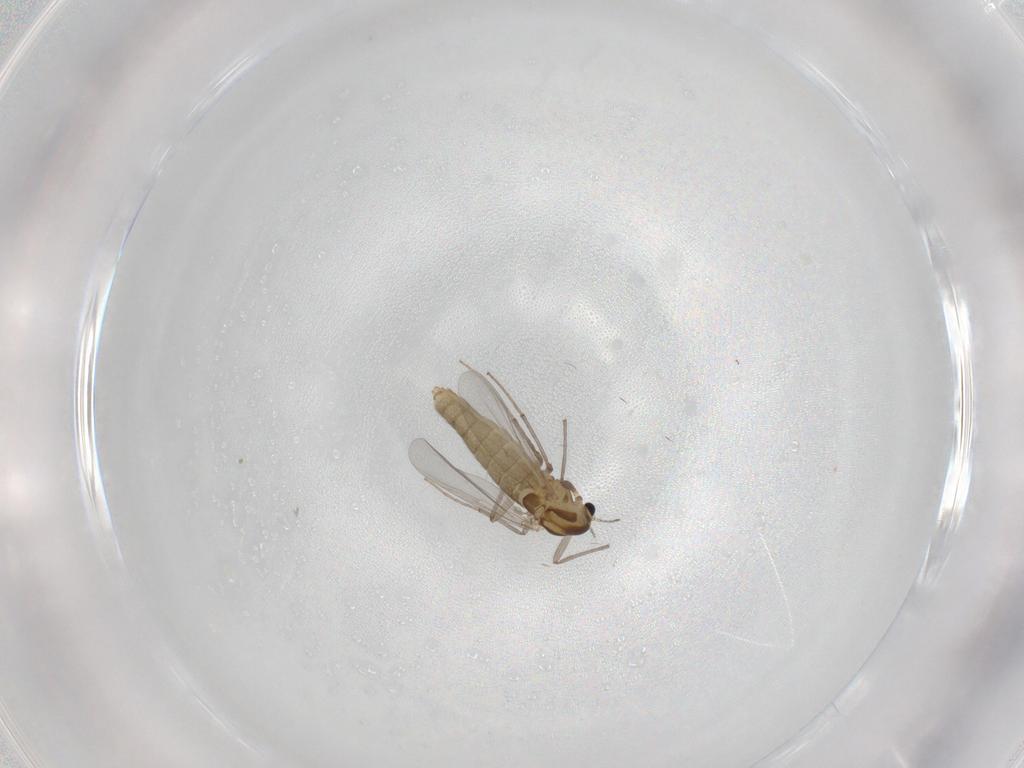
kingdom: Animalia
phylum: Arthropoda
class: Insecta
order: Diptera
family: Chironomidae
